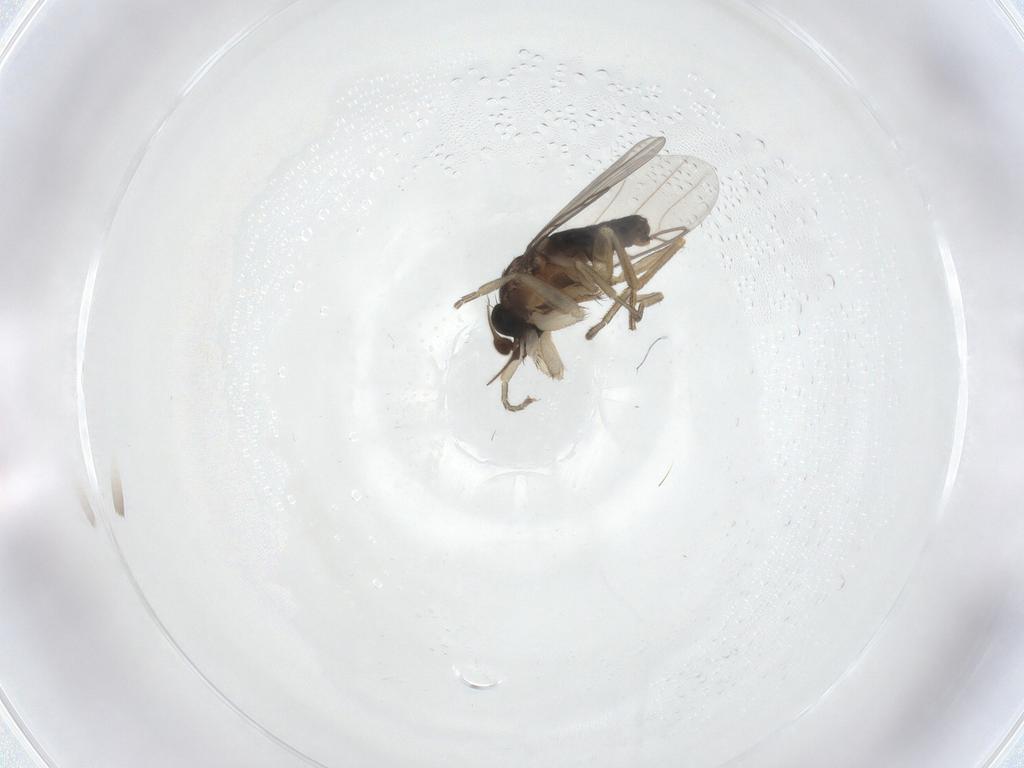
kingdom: Animalia
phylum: Arthropoda
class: Insecta
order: Diptera
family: Phoridae
